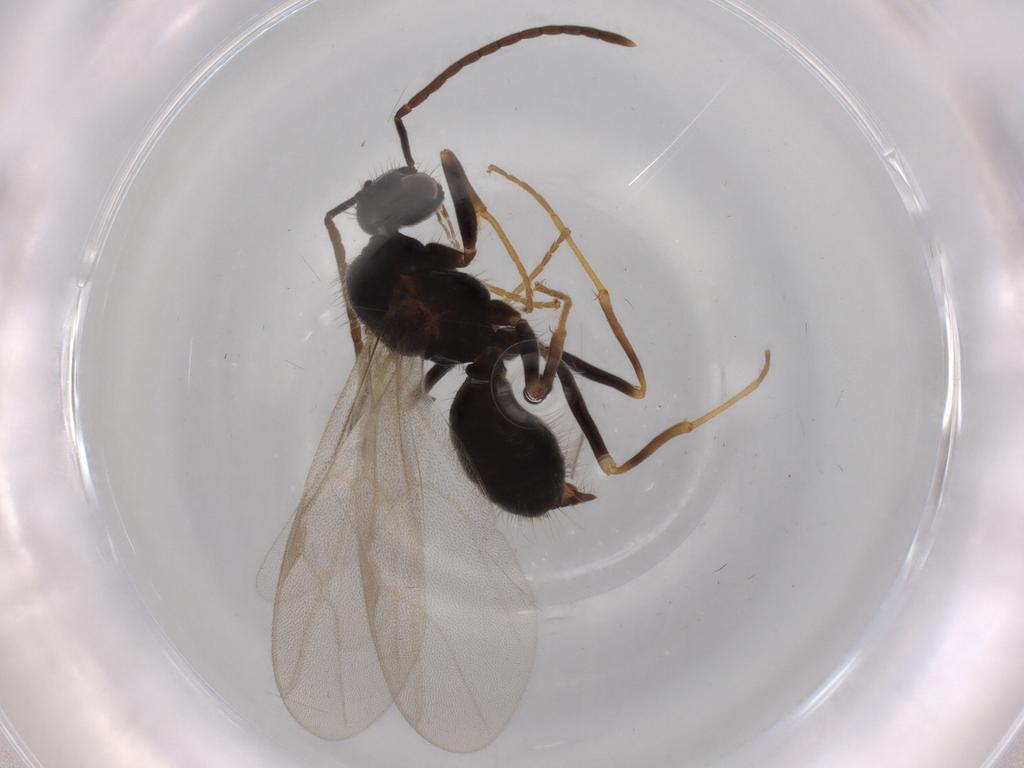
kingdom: Animalia
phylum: Arthropoda
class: Insecta
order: Hymenoptera
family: Formicidae
